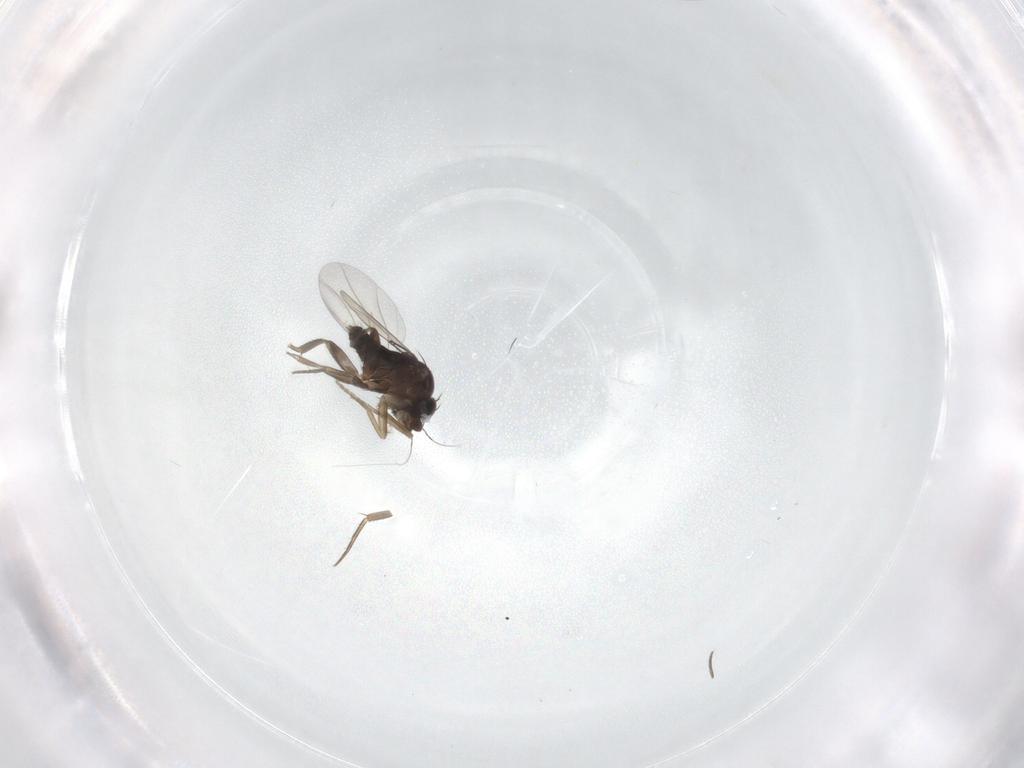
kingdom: Animalia
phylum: Arthropoda
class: Insecta
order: Diptera
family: Phoridae
